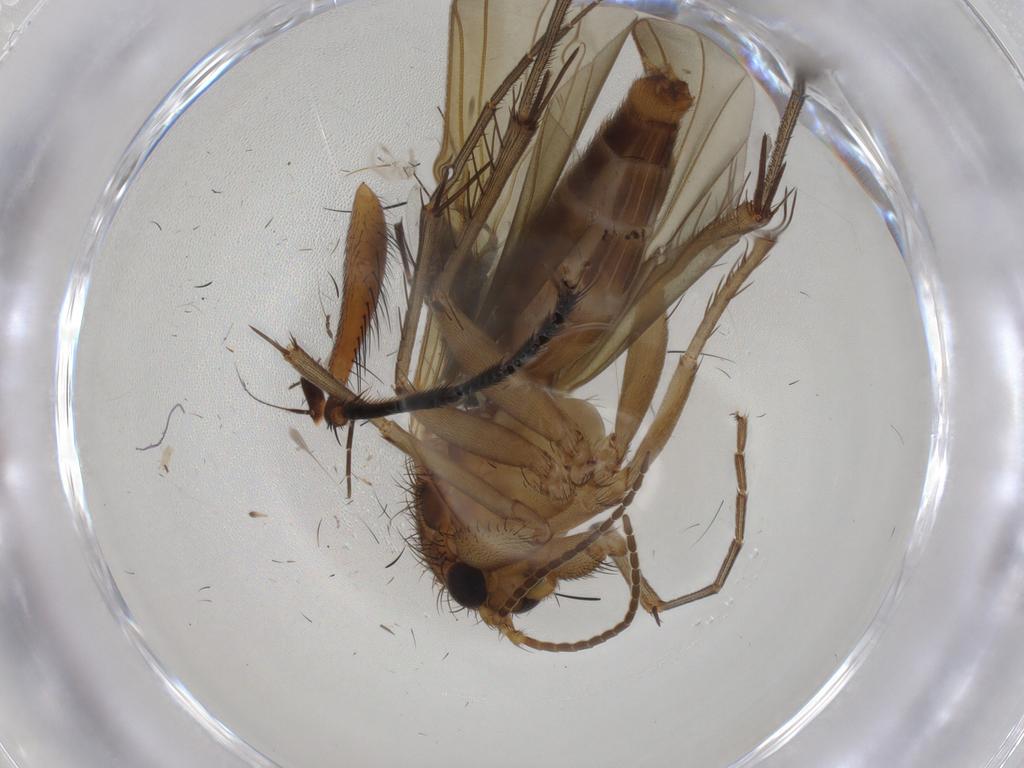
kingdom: Animalia
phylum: Arthropoda
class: Insecta
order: Diptera
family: Cecidomyiidae
